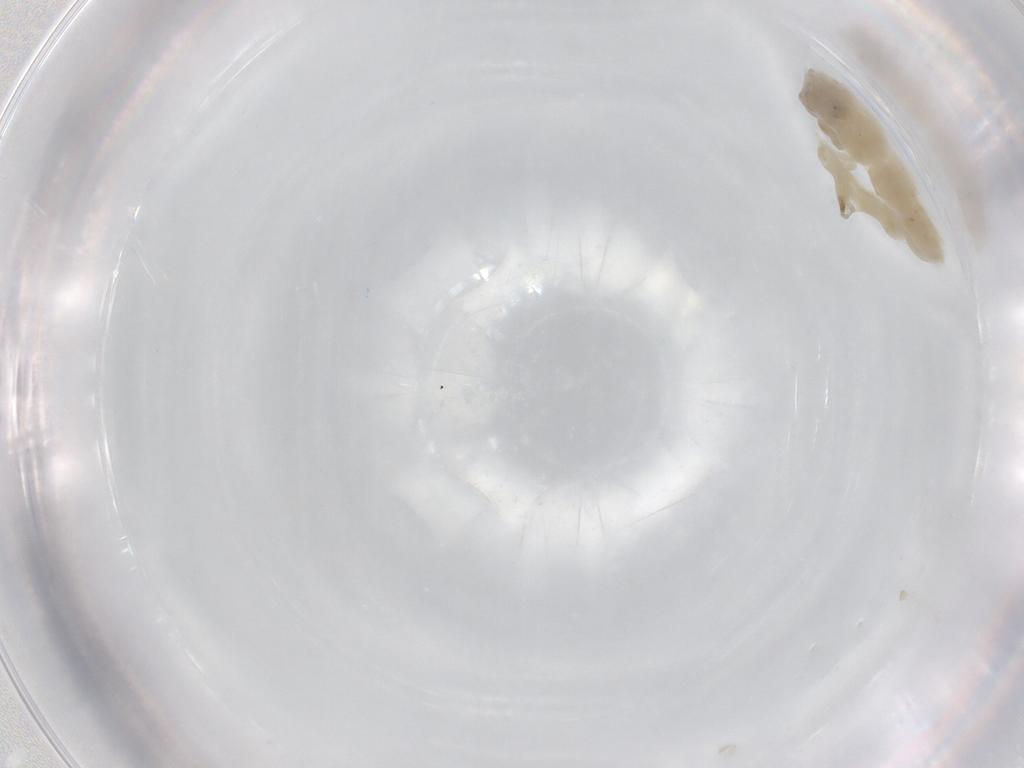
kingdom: Animalia
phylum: Arthropoda
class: Insecta
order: Diptera
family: Chironomidae
